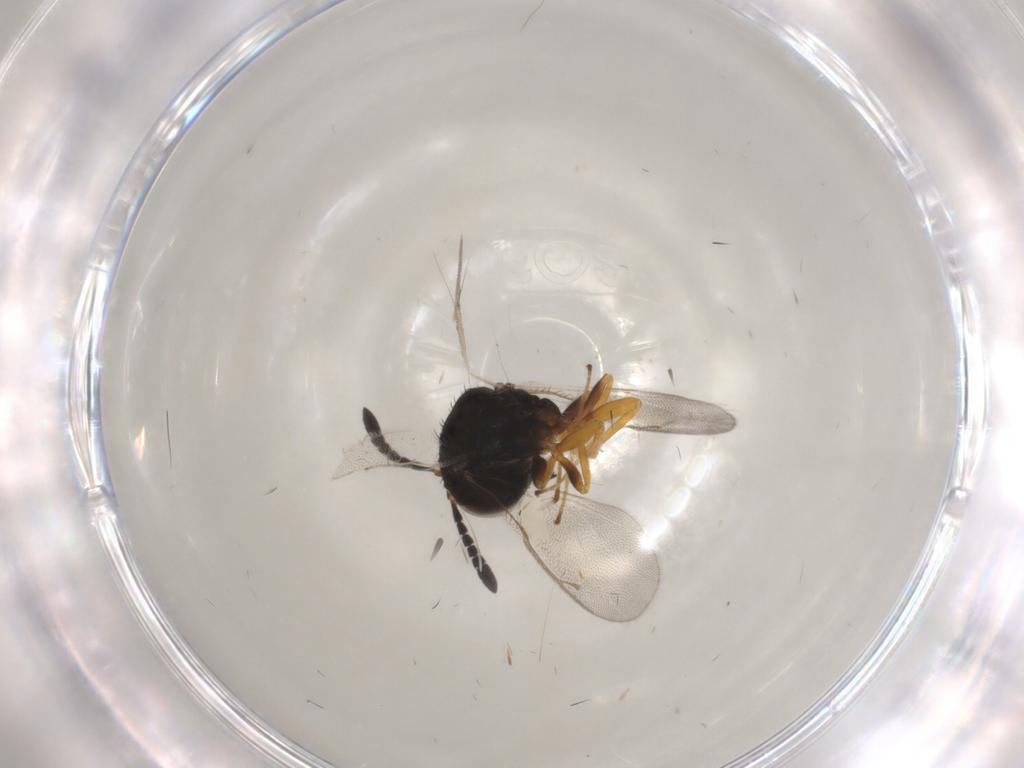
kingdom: Animalia
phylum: Arthropoda
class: Insecta
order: Hymenoptera
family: Pteromalidae
